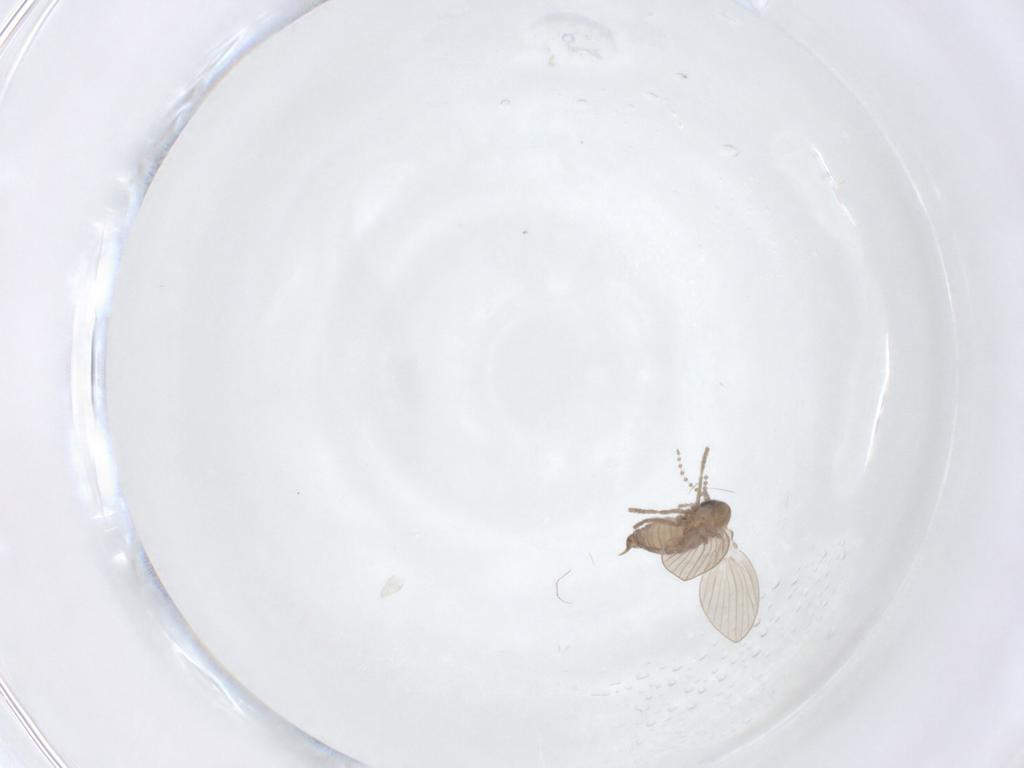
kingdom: Animalia
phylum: Arthropoda
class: Insecta
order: Diptera
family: Psychodidae
